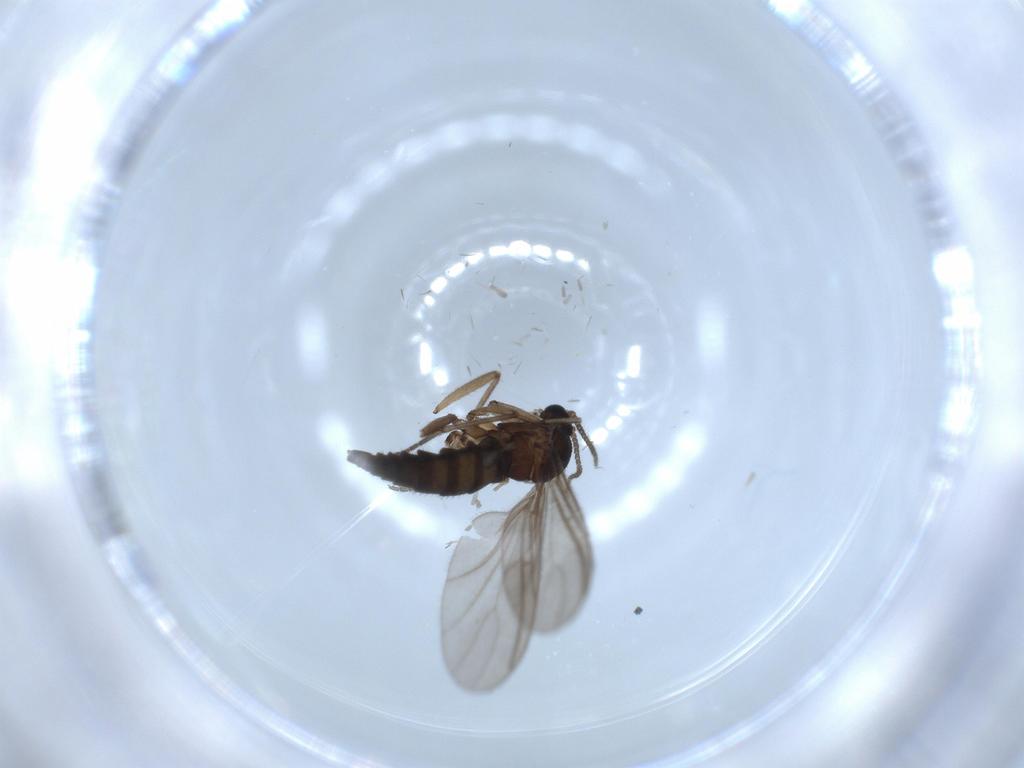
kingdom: Animalia
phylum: Arthropoda
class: Insecta
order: Diptera
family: Sciaridae
